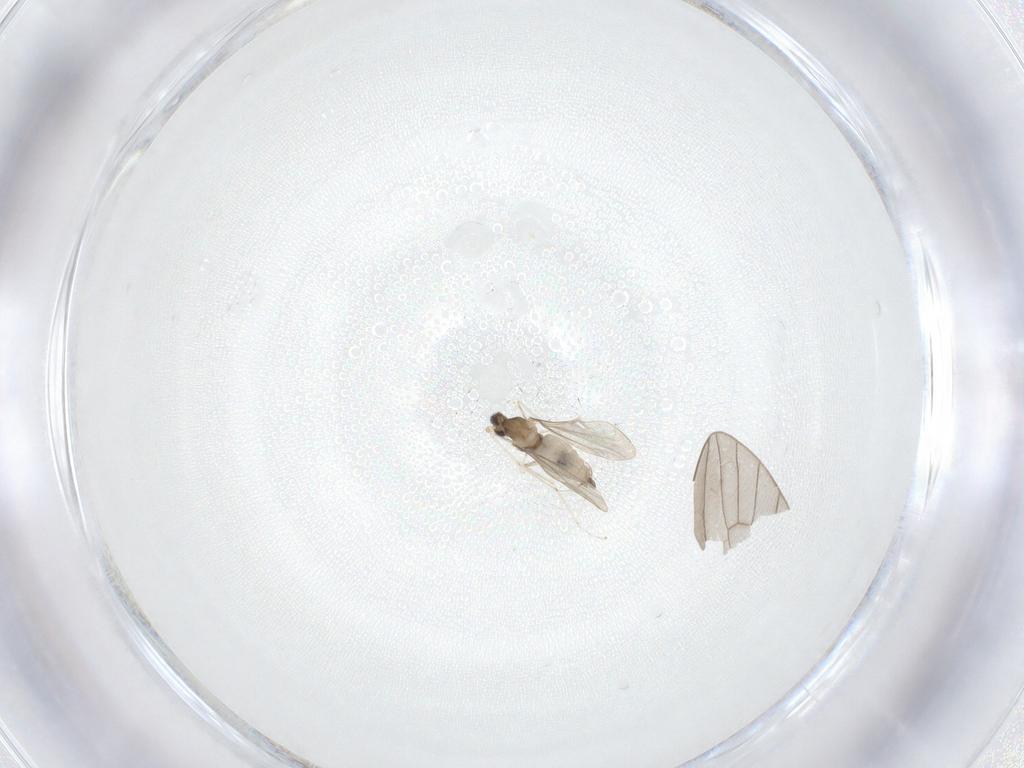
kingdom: Animalia
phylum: Arthropoda
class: Insecta
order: Diptera
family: Cecidomyiidae
